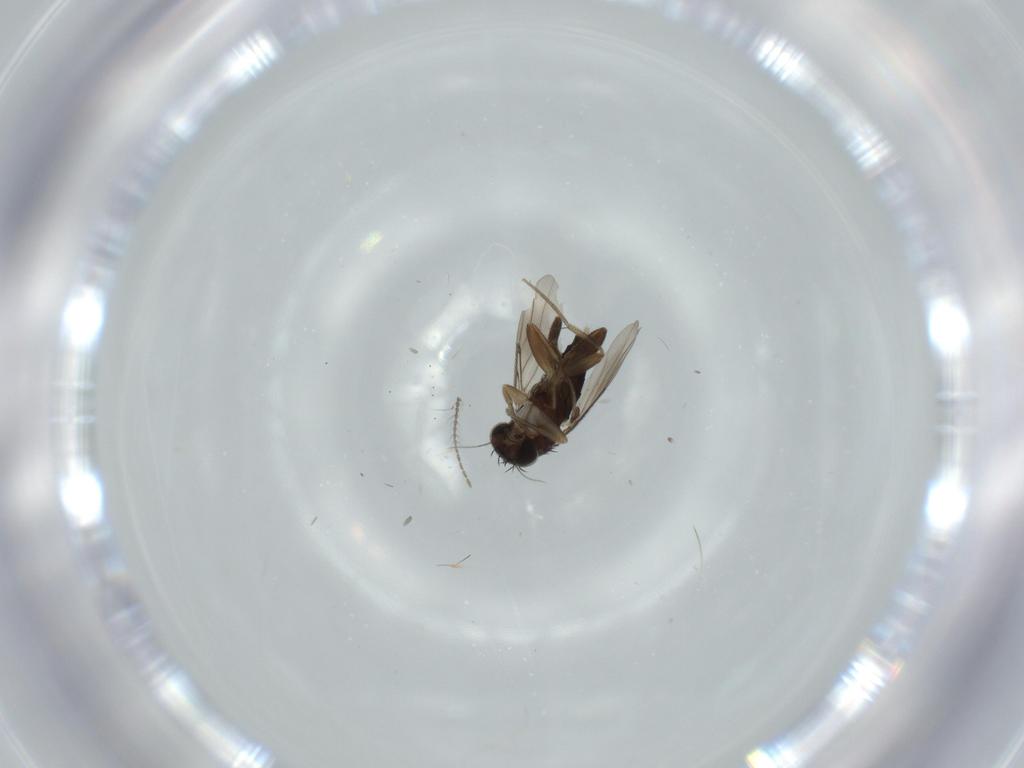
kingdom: Animalia
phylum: Arthropoda
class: Insecta
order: Diptera
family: Phoridae
